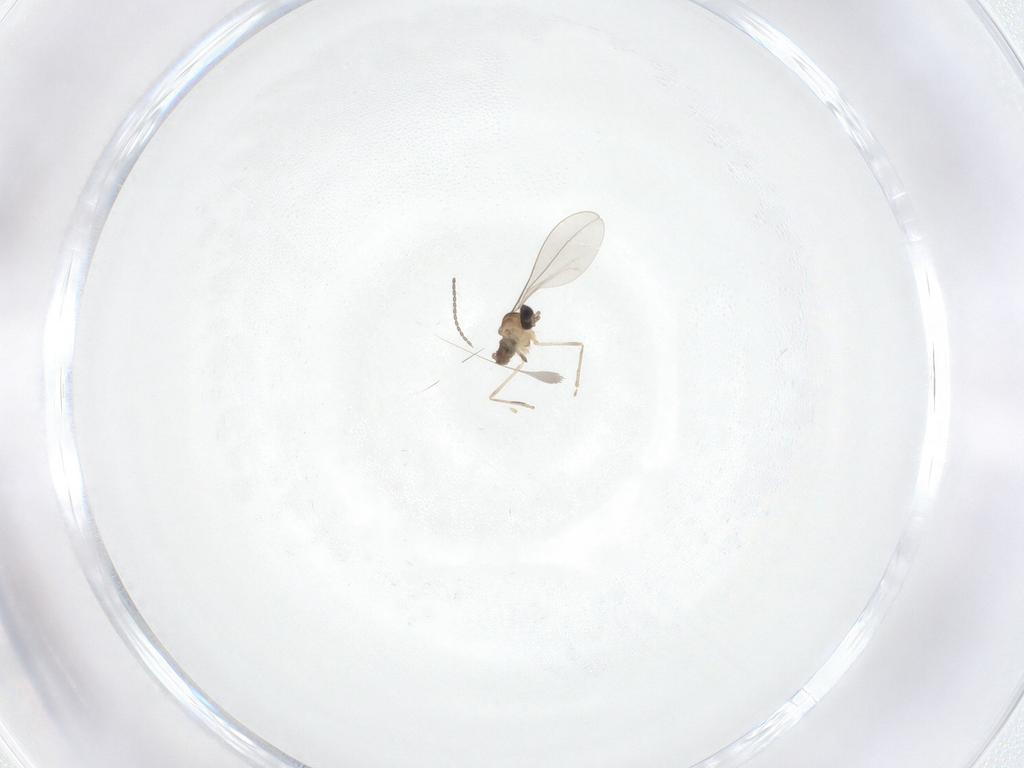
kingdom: Animalia
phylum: Arthropoda
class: Insecta
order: Diptera
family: Cecidomyiidae
